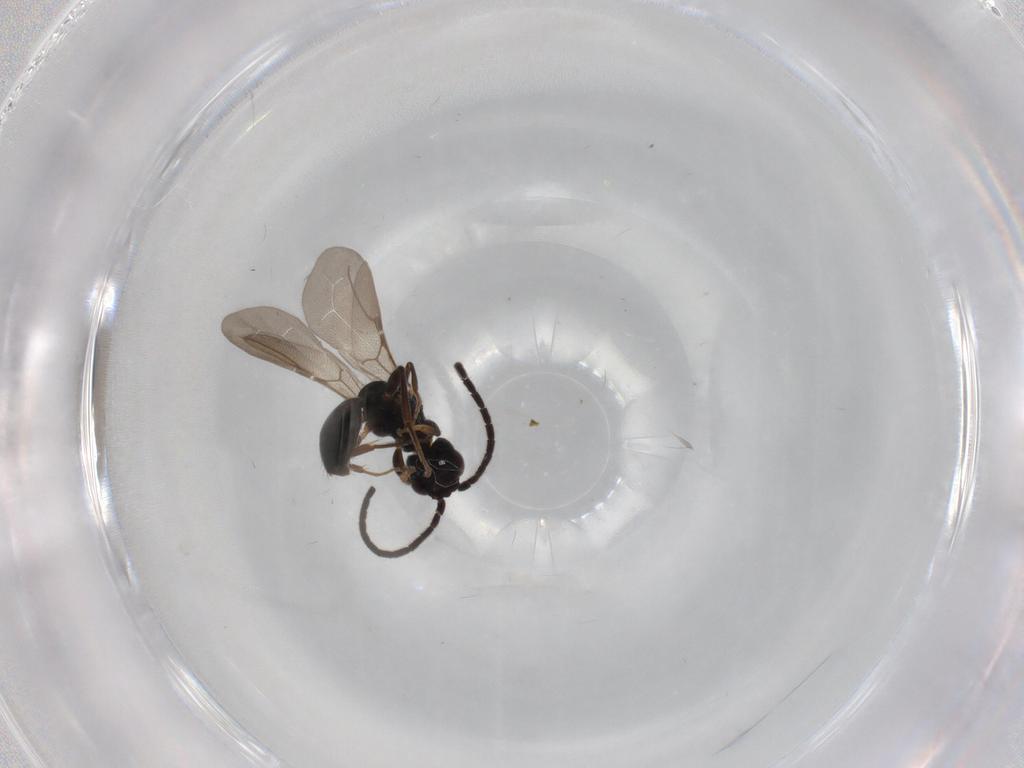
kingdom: Animalia
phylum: Arthropoda
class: Insecta
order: Hymenoptera
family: Bethylidae
